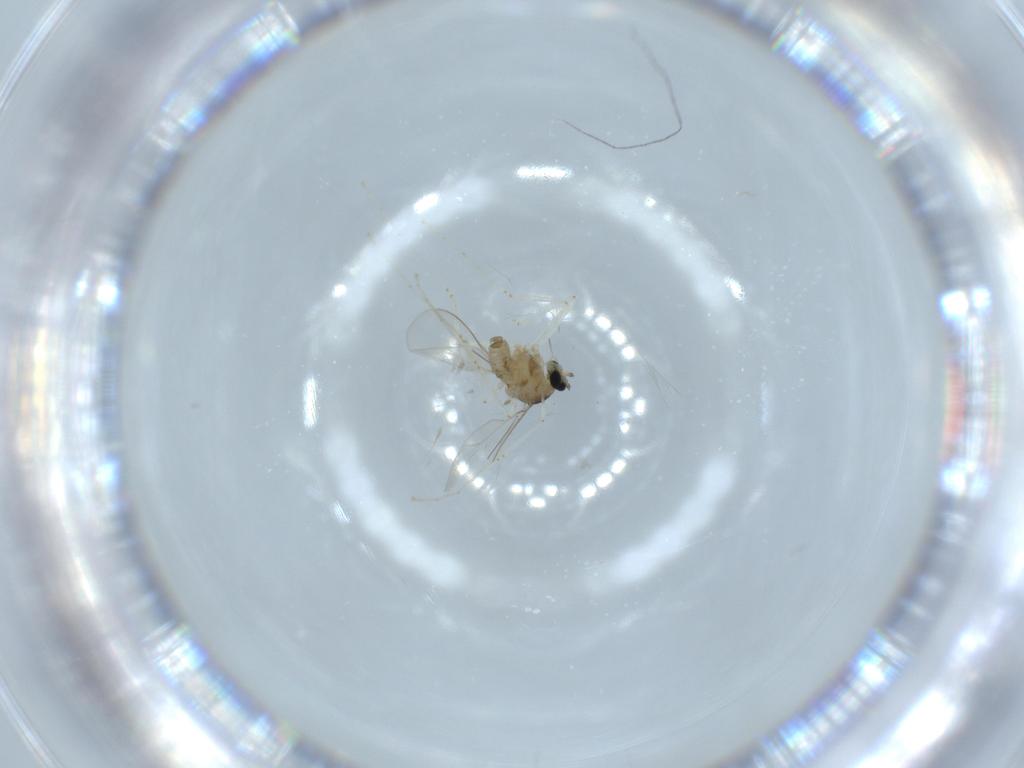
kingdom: Animalia
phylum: Arthropoda
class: Insecta
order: Diptera
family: Cecidomyiidae
